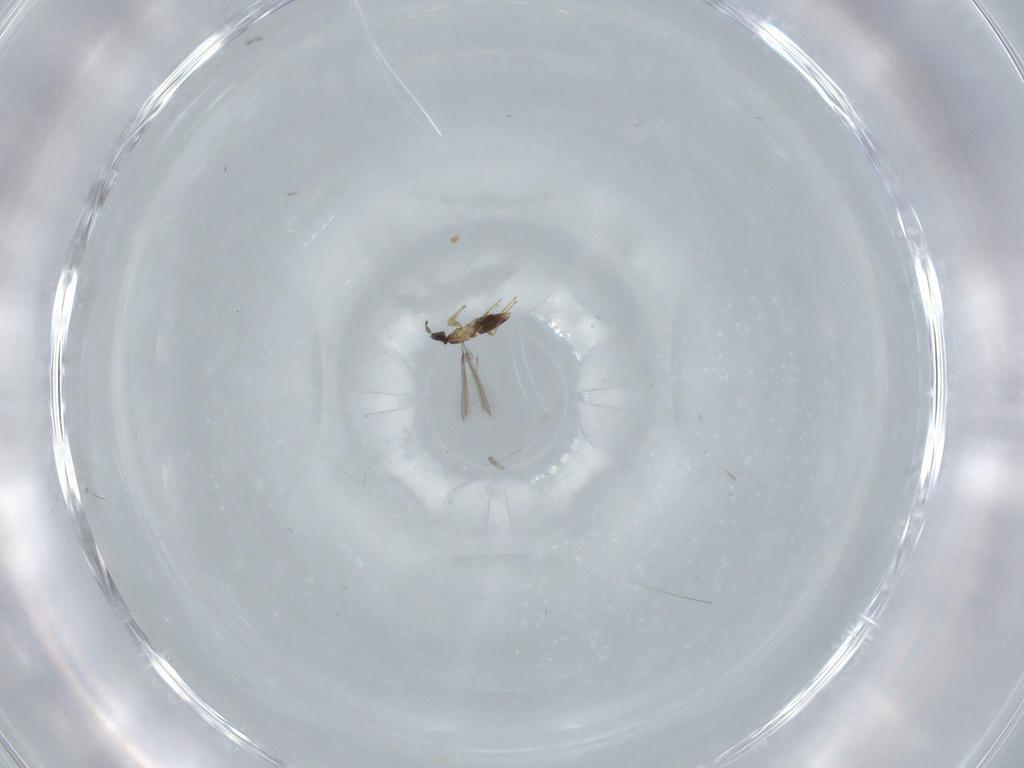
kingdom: Animalia
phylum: Arthropoda
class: Insecta
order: Hymenoptera
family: Mymaridae
